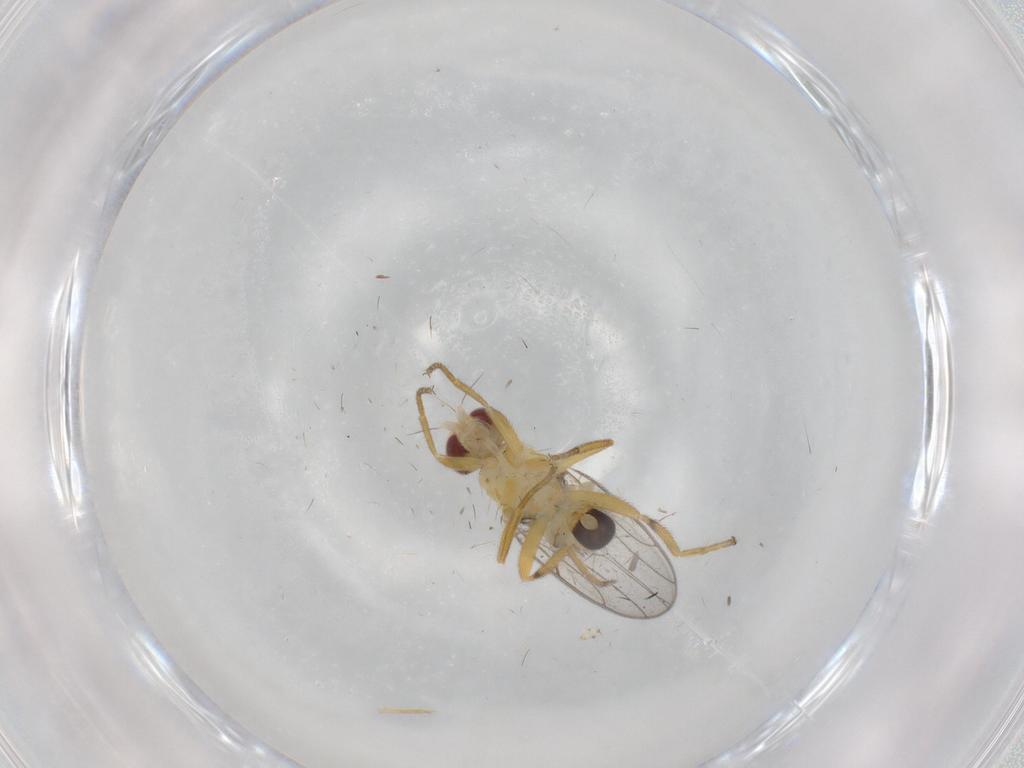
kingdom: Animalia
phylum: Arthropoda
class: Insecta
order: Diptera
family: Chloropidae
